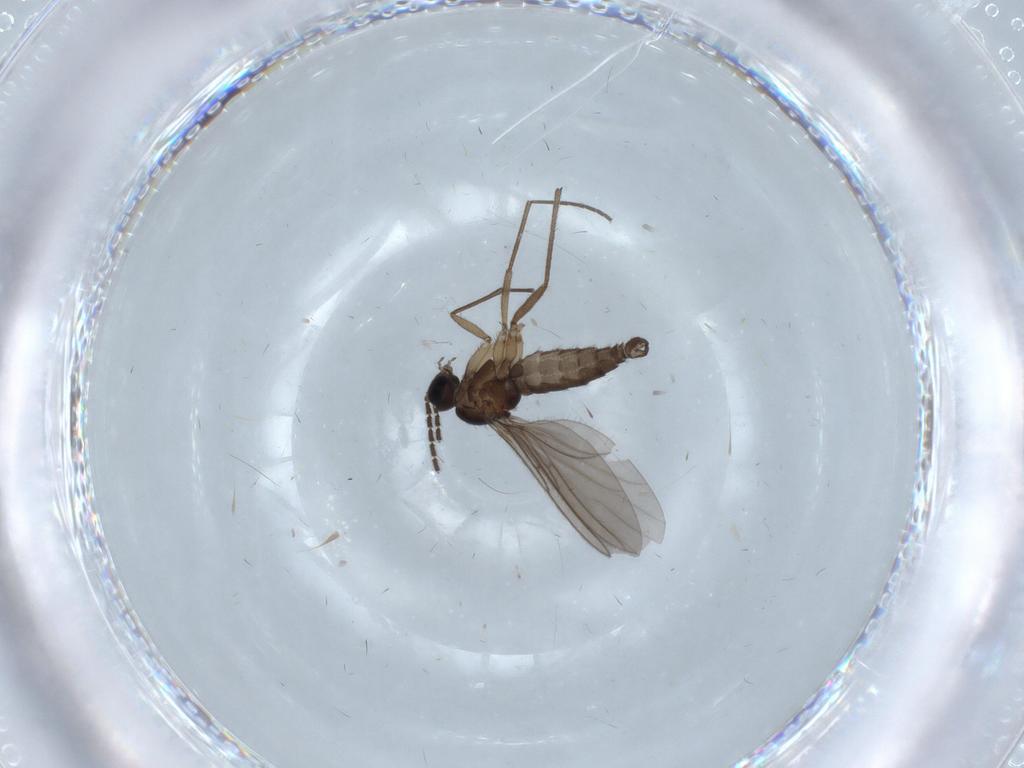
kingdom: Animalia
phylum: Arthropoda
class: Insecta
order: Diptera
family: Sciaridae
